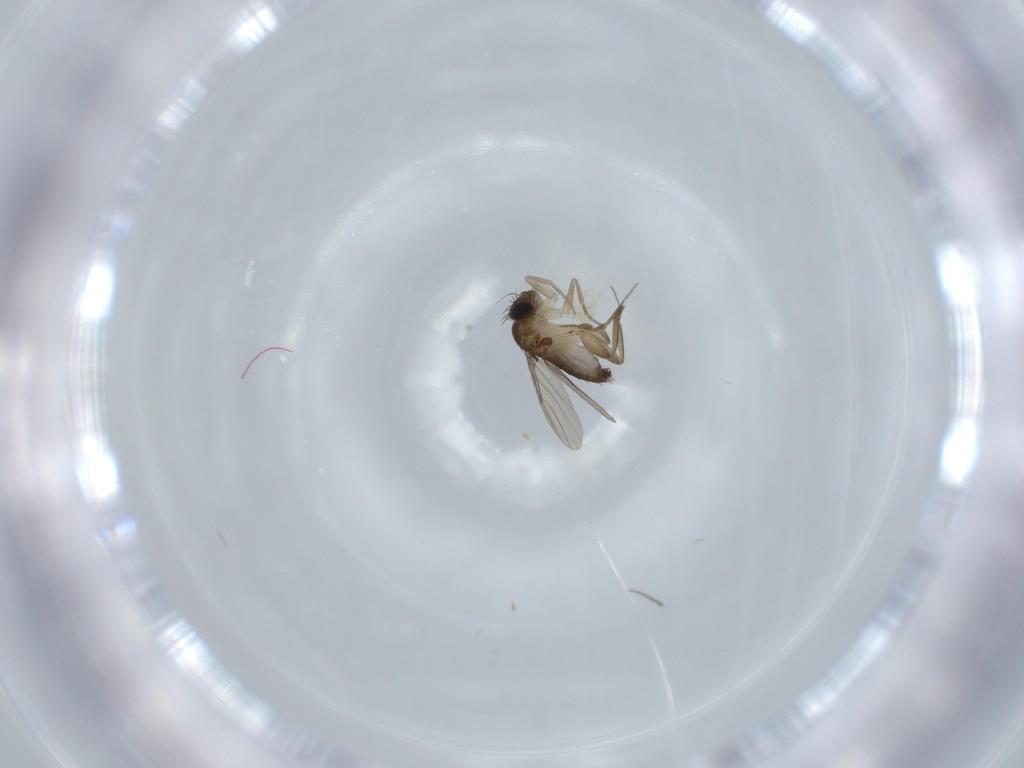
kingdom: Animalia
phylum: Arthropoda
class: Insecta
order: Diptera
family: Phoridae
